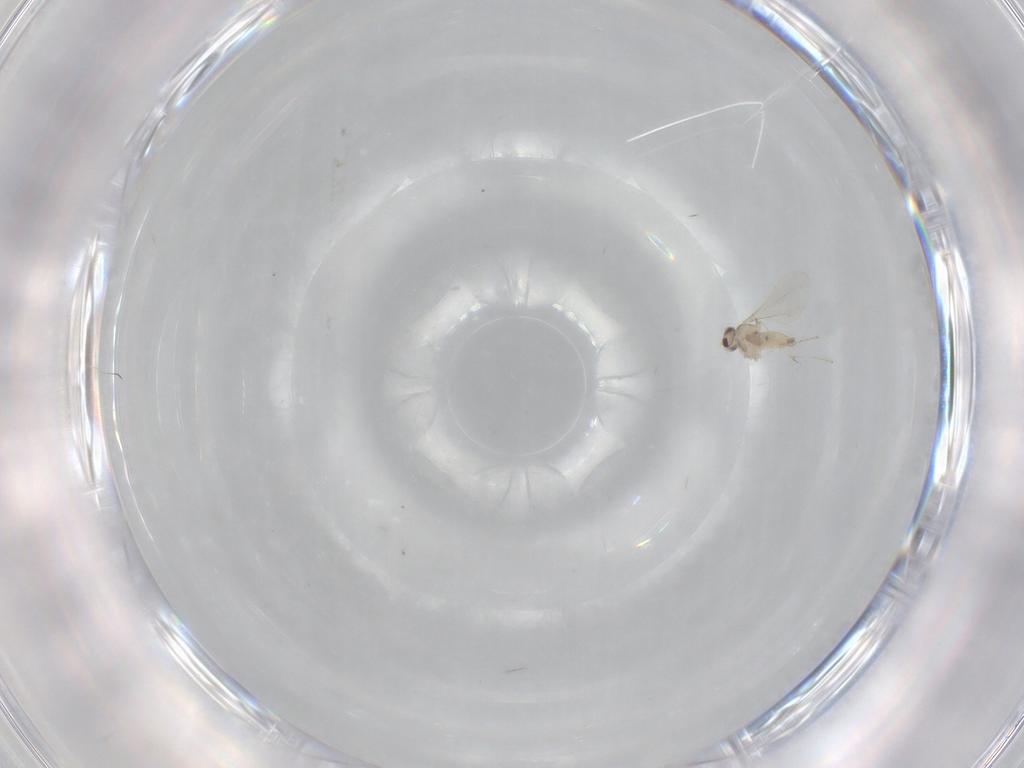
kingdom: Animalia
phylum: Arthropoda
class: Insecta
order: Diptera
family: Cecidomyiidae
